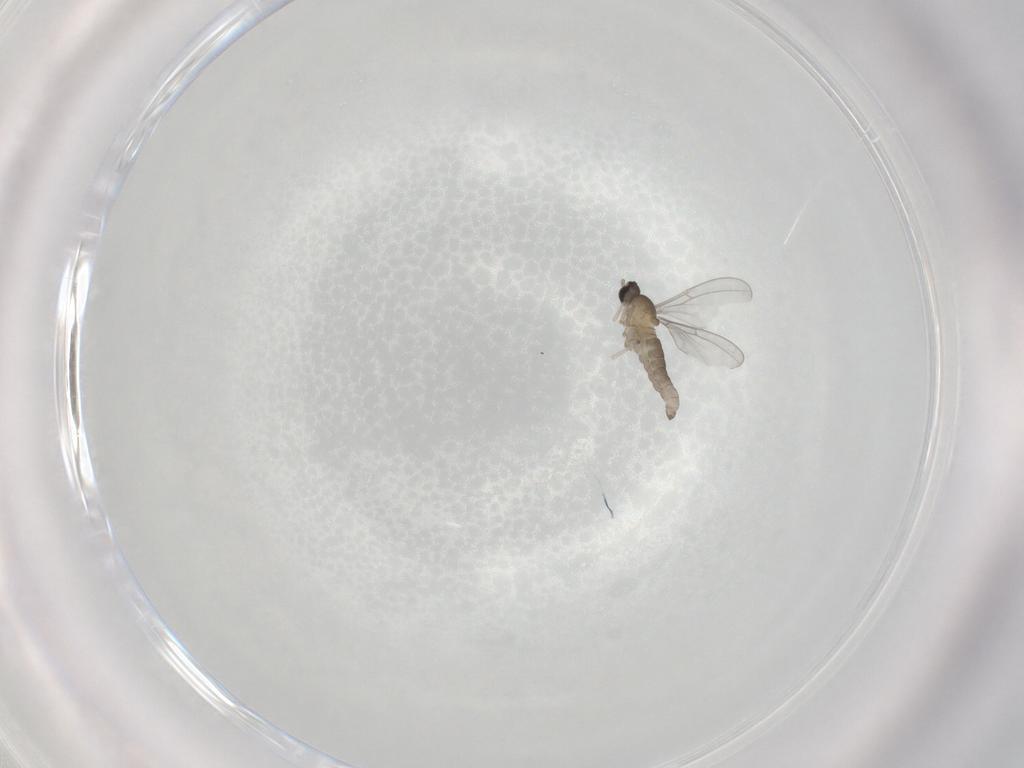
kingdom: Animalia
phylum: Arthropoda
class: Insecta
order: Diptera
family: Cecidomyiidae
